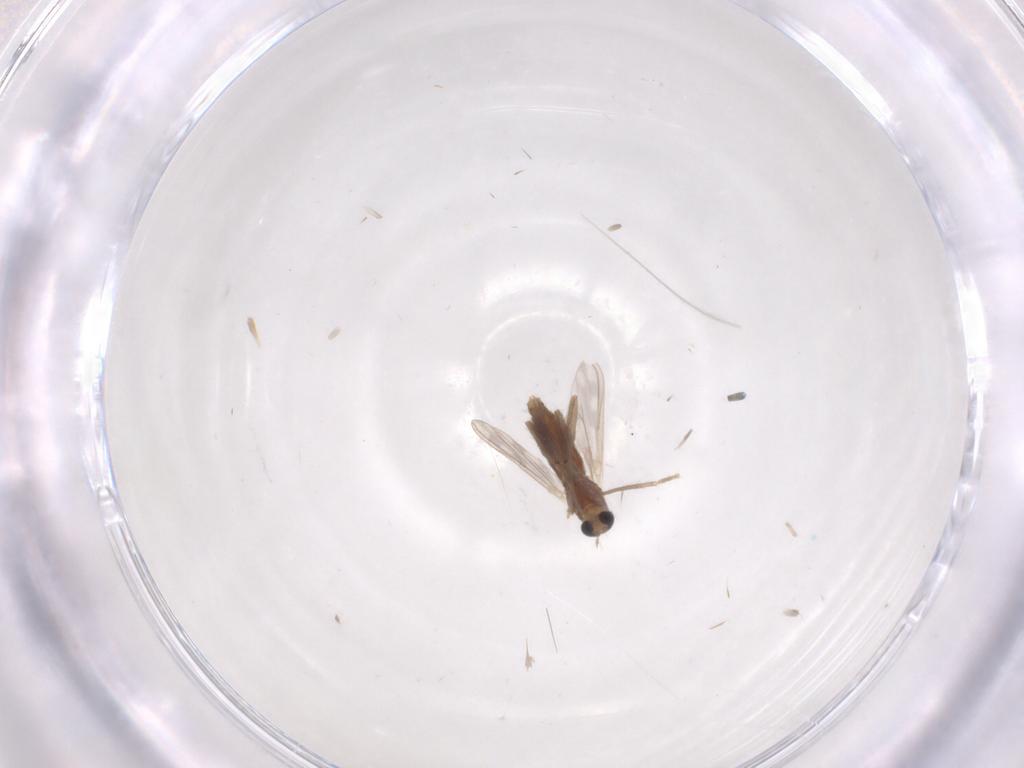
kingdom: Animalia
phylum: Arthropoda
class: Insecta
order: Diptera
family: Chironomidae
